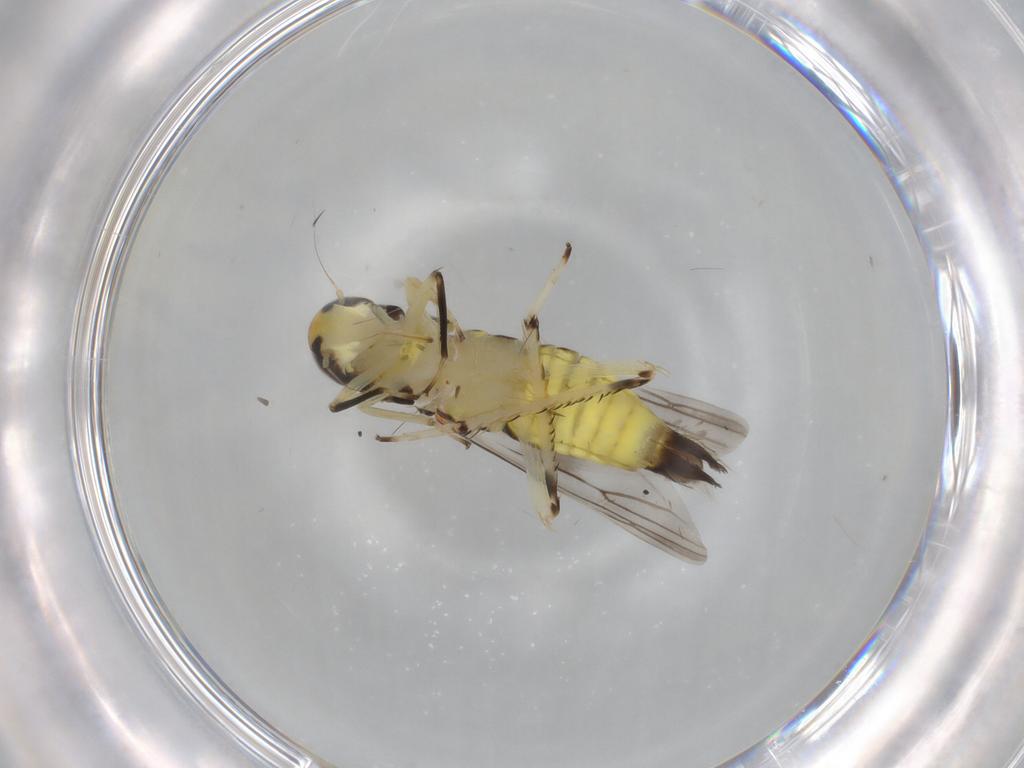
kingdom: Animalia
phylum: Arthropoda
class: Insecta
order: Hemiptera
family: Cicadellidae
